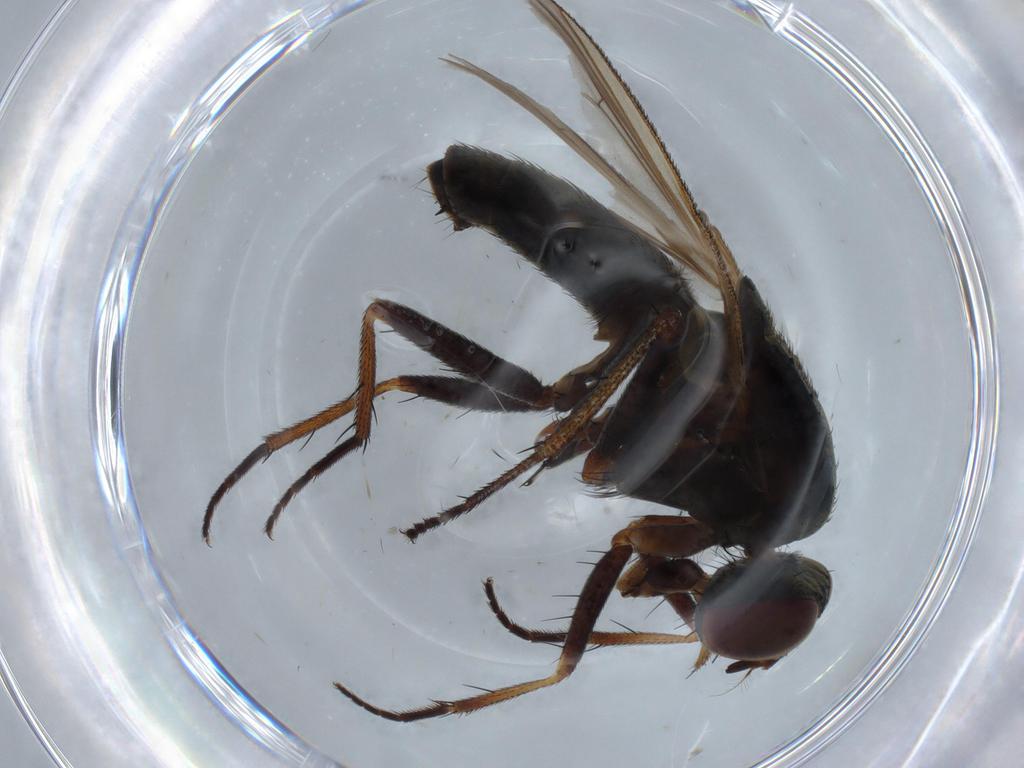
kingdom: Animalia
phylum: Arthropoda
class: Insecta
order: Diptera
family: Muscidae
